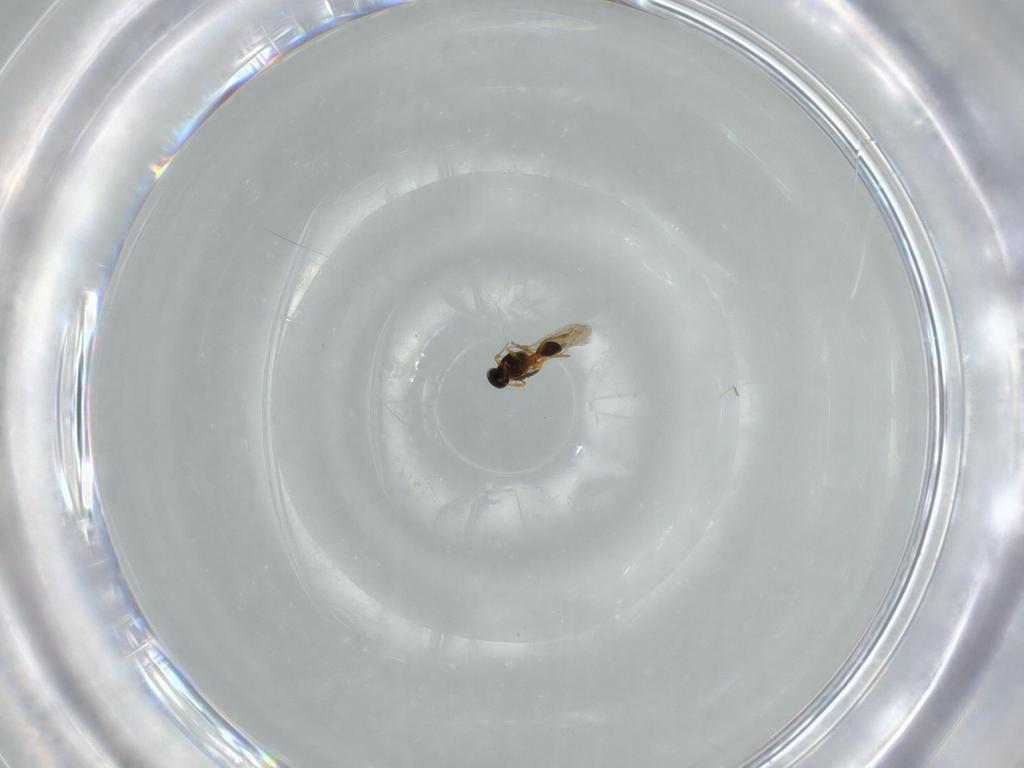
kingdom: Animalia
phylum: Arthropoda
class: Insecta
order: Hymenoptera
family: Platygastridae
